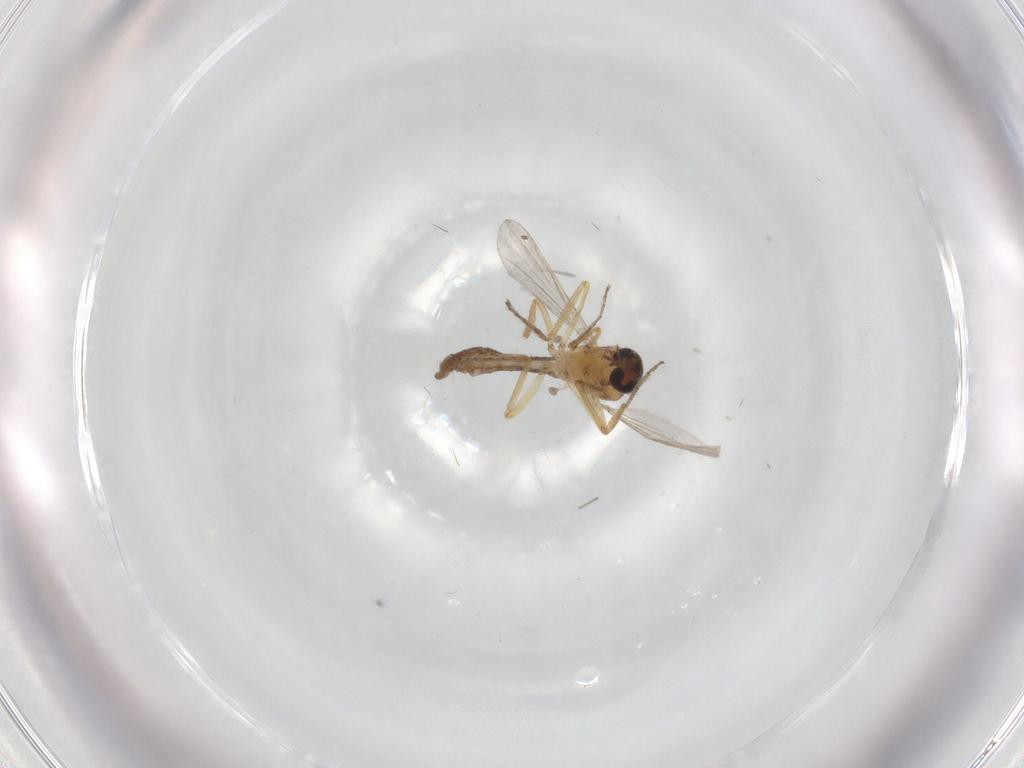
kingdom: Animalia
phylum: Arthropoda
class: Insecta
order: Diptera
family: Ceratopogonidae
